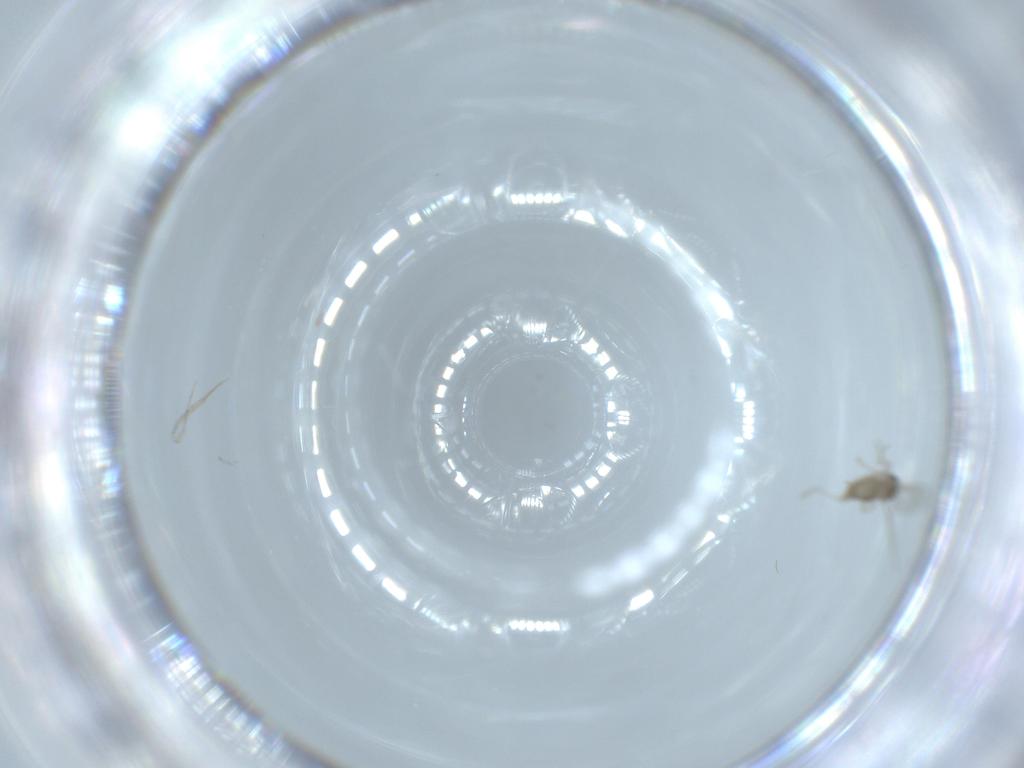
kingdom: Animalia
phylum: Arthropoda
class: Insecta
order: Diptera
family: Cecidomyiidae
